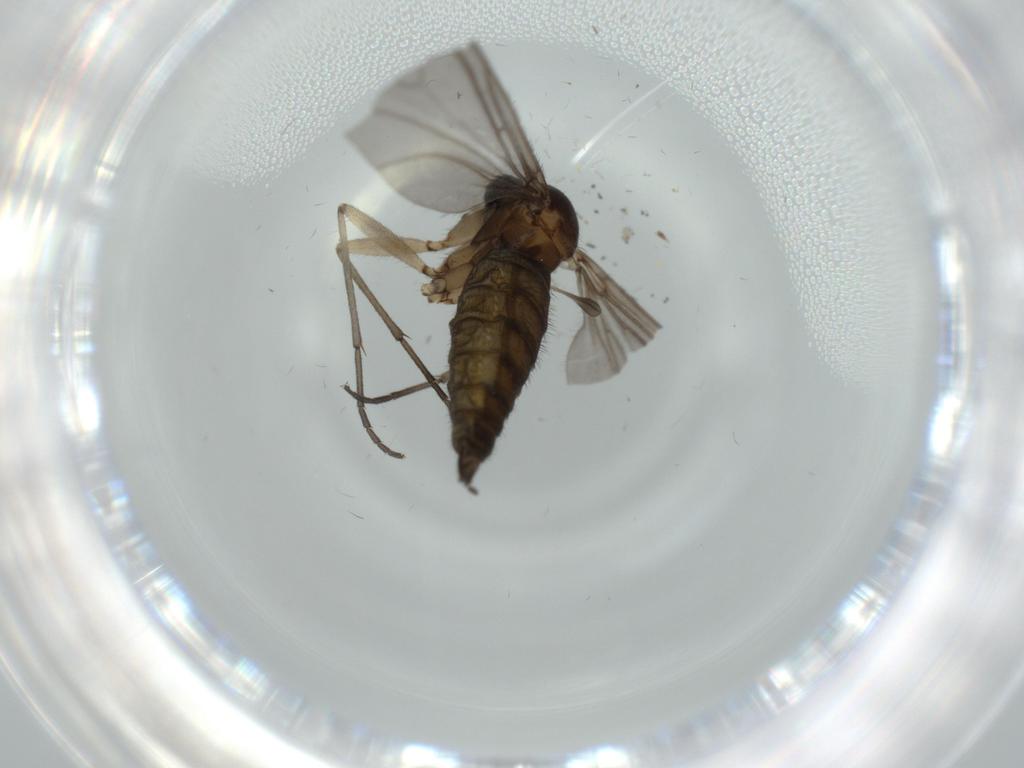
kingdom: Animalia
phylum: Arthropoda
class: Insecta
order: Diptera
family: Sciaridae
